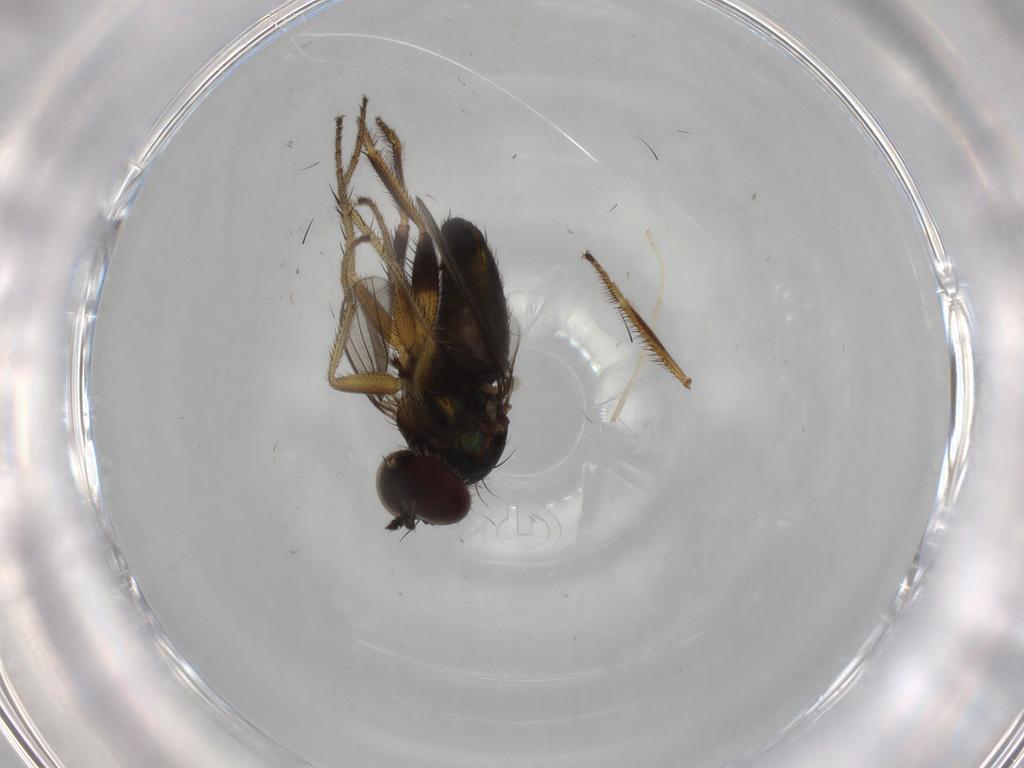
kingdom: Animalia
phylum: Arthropoda
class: Insecta
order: Diptera
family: Dolichopodidae
